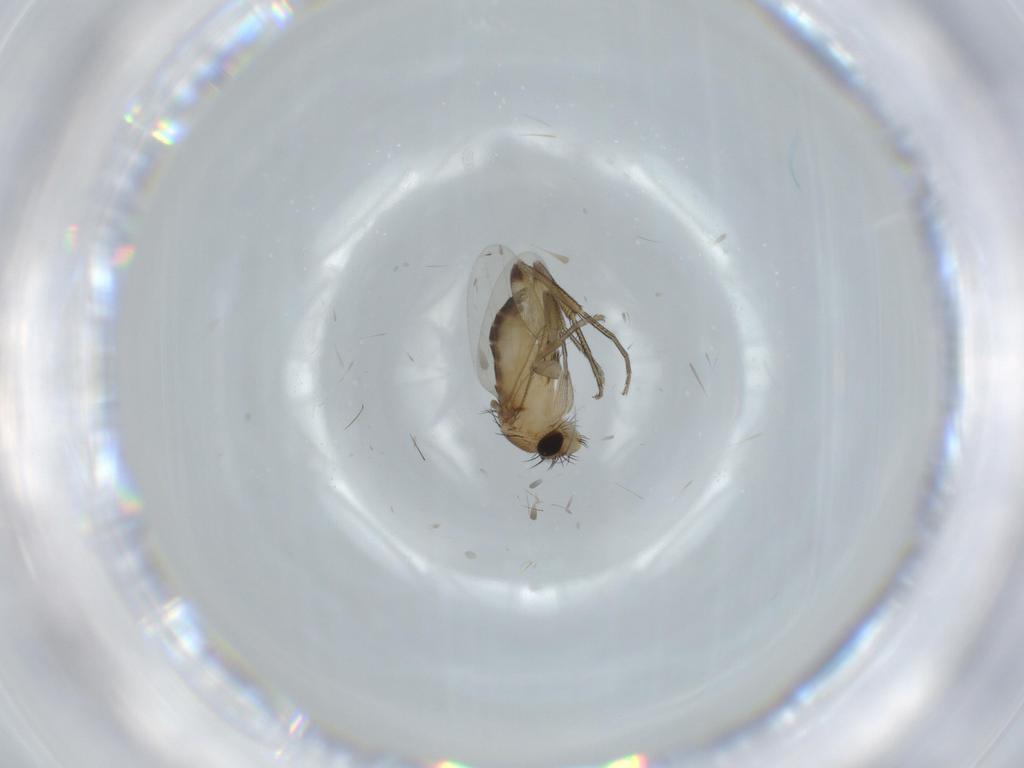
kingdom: Animalia
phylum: Arthropoda
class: Insecta
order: Diptera
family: Phoridae
